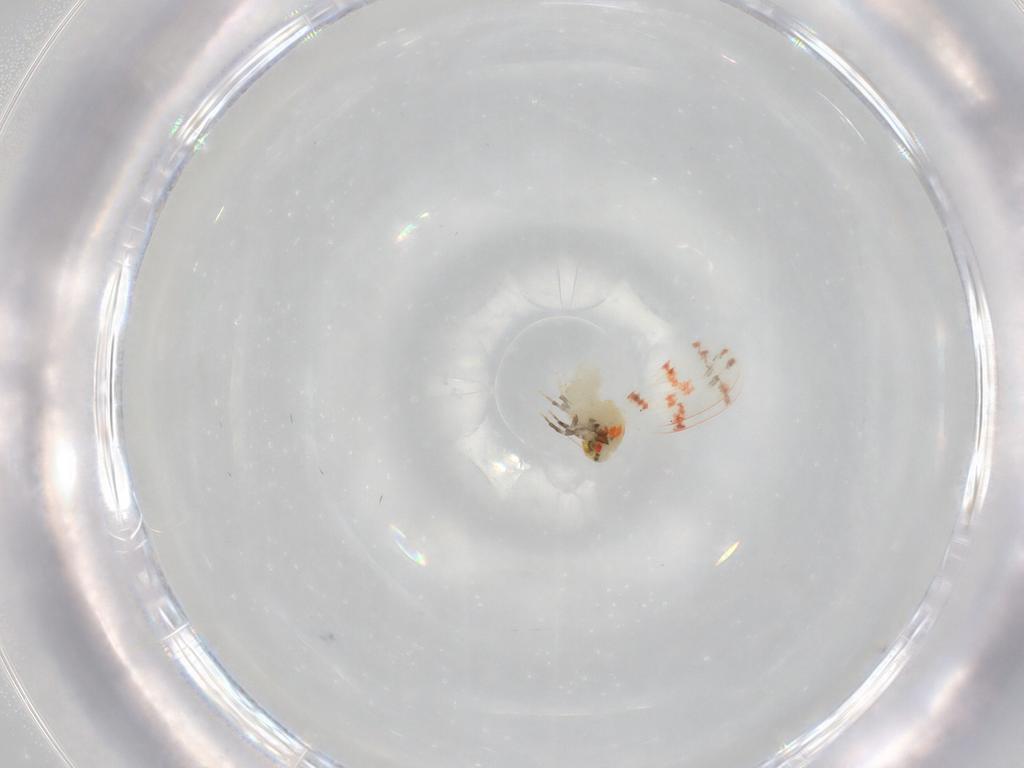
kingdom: Animalia
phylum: Arthropoda
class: Insecta
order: Hemiptera
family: Aleyrodidae
